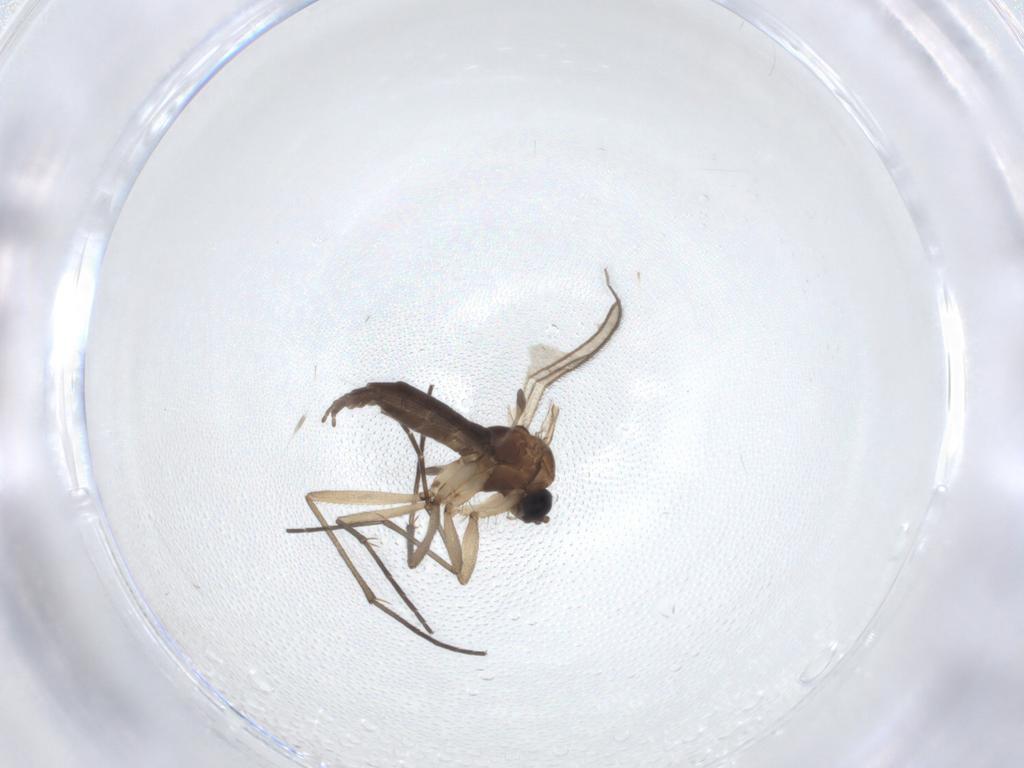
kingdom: Animalia
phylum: Arthropoda
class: Insecta
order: Diptera
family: Sciaridae
